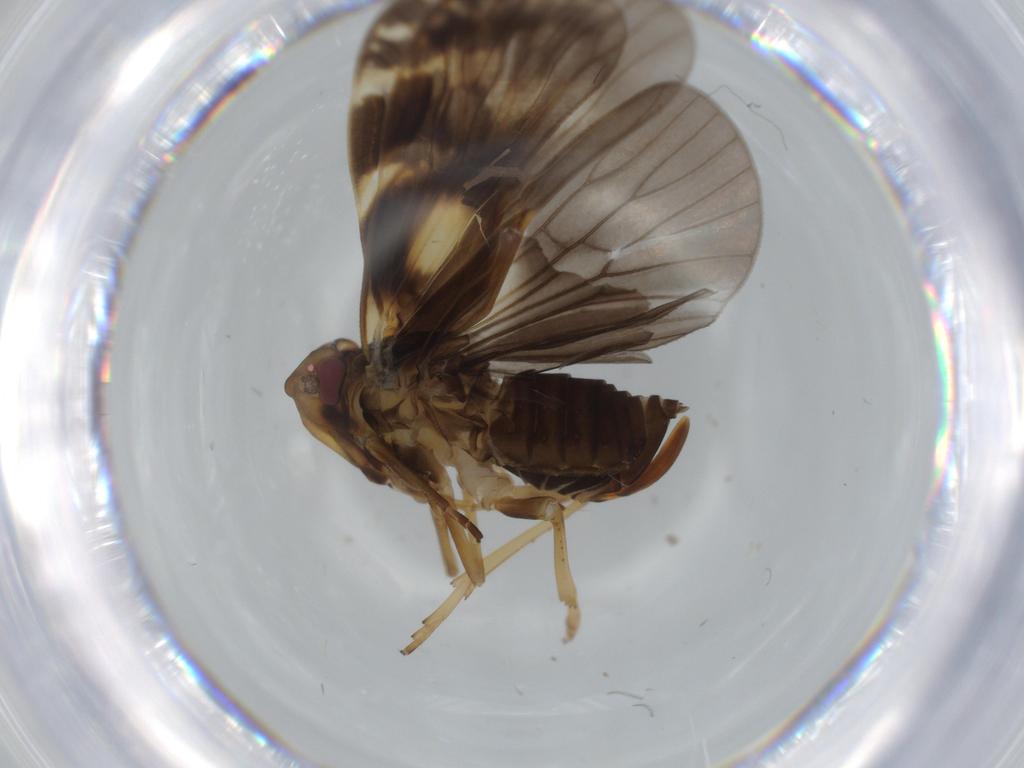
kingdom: Animalia
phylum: Arthropoda
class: Insecta
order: Hemiptera
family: Cixiidae
